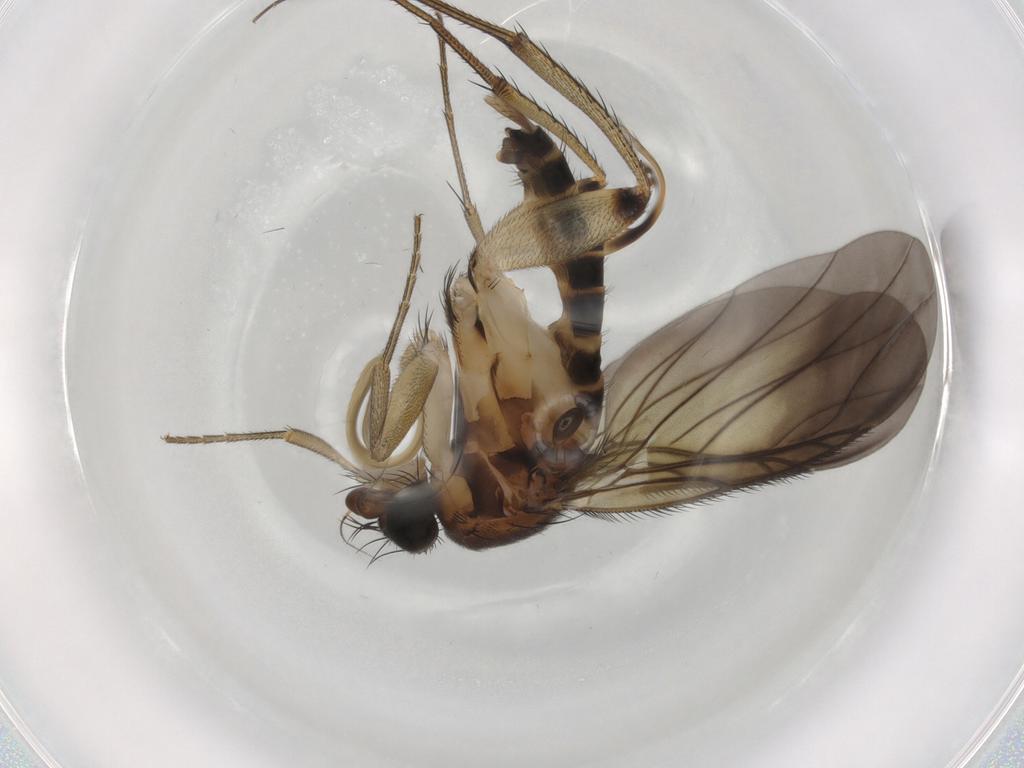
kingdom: Animalia
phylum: Arthropoda
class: Insecta
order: Diptera
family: Phoridae
